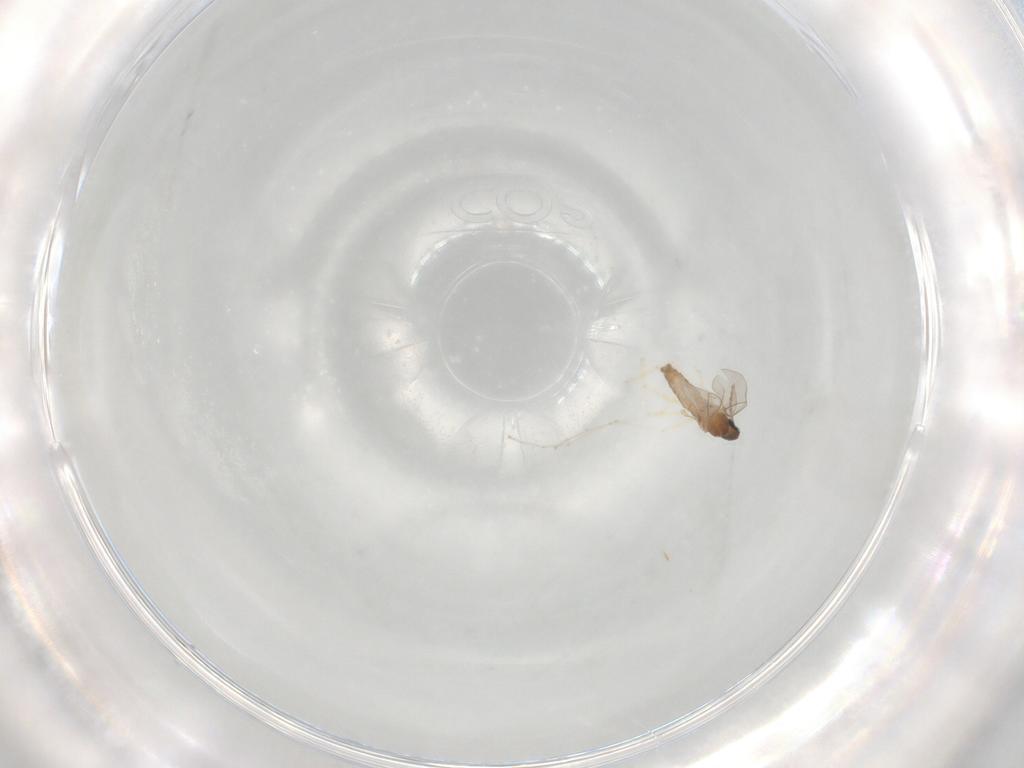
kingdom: Animalia
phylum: Arthropoda
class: Insecta
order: Diptera
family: Cecidomyiidae
